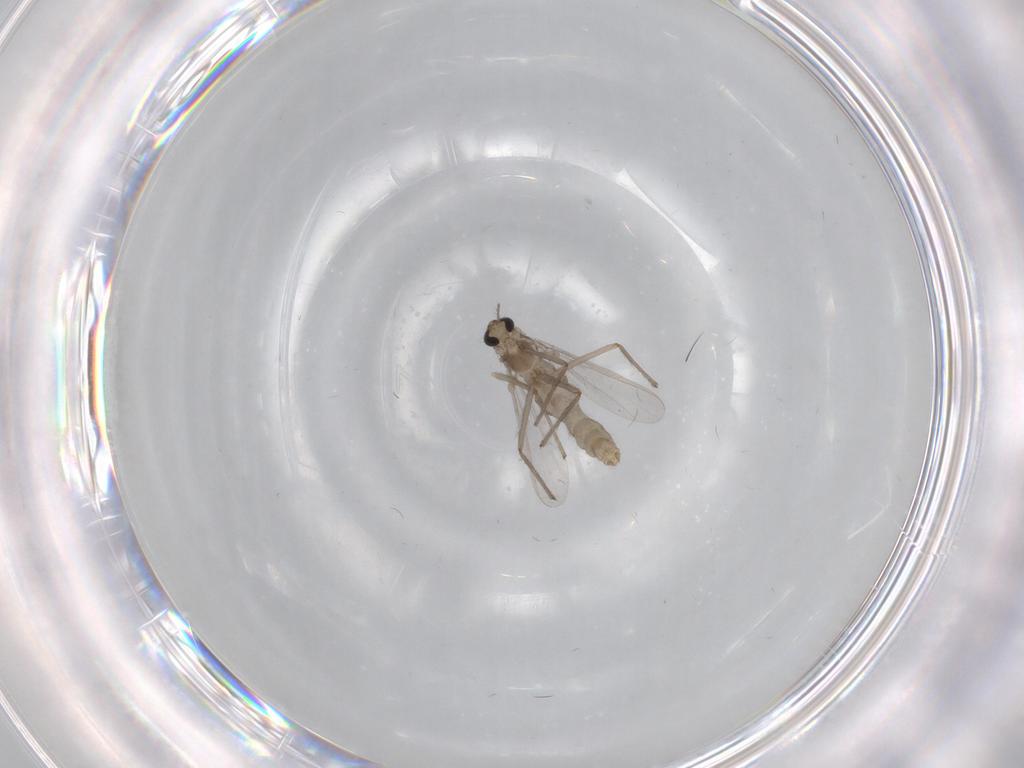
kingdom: Animalia
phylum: Arthropoda
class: Insecta
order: Diptera
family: Chironomidae
